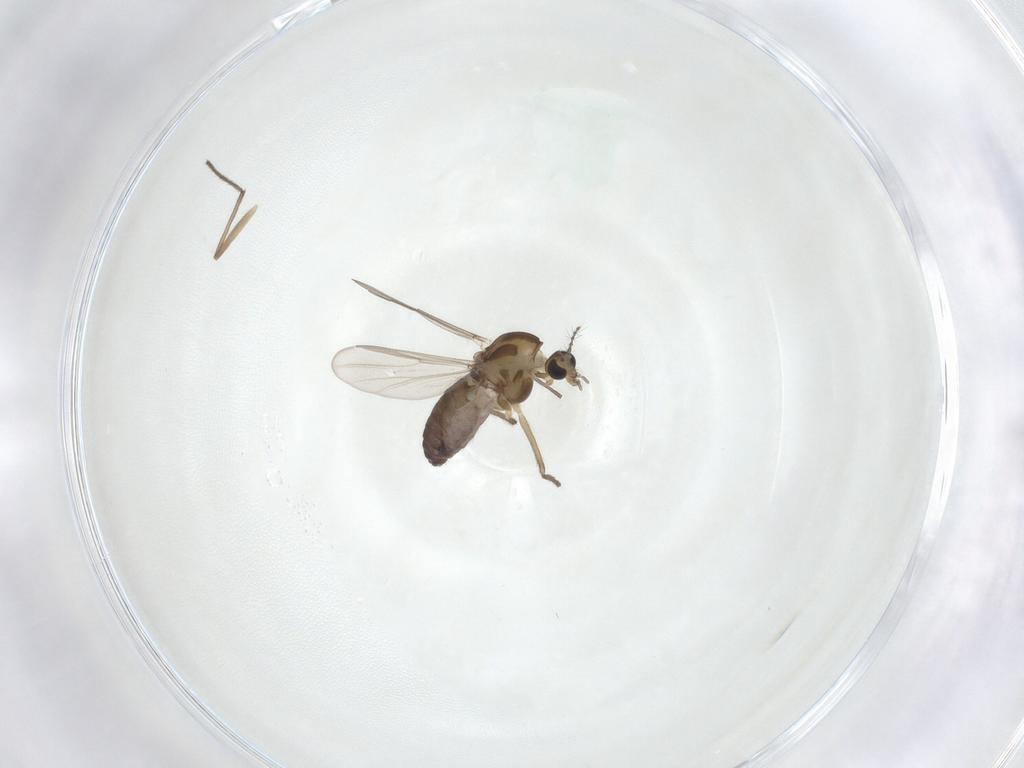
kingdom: Animalia
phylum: Arthropoda
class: Insecta
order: Diptera
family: Chironomidae
